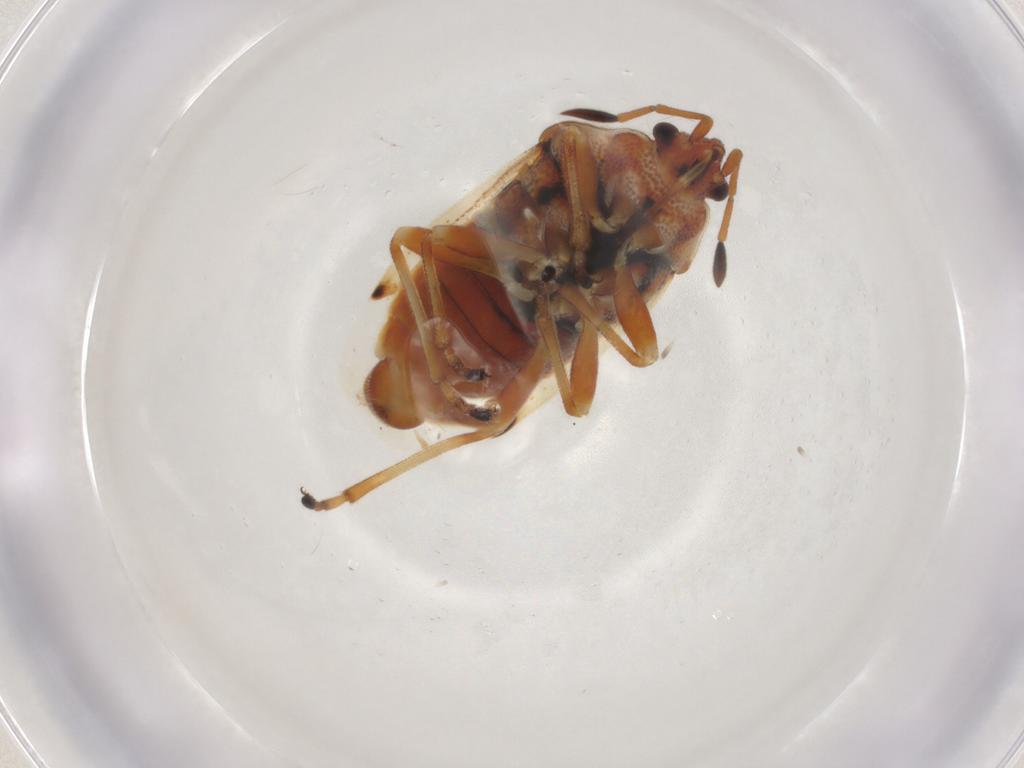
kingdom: Animalia
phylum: Arthropoda
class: Insecta
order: Hemiptera
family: Lygaeidae
